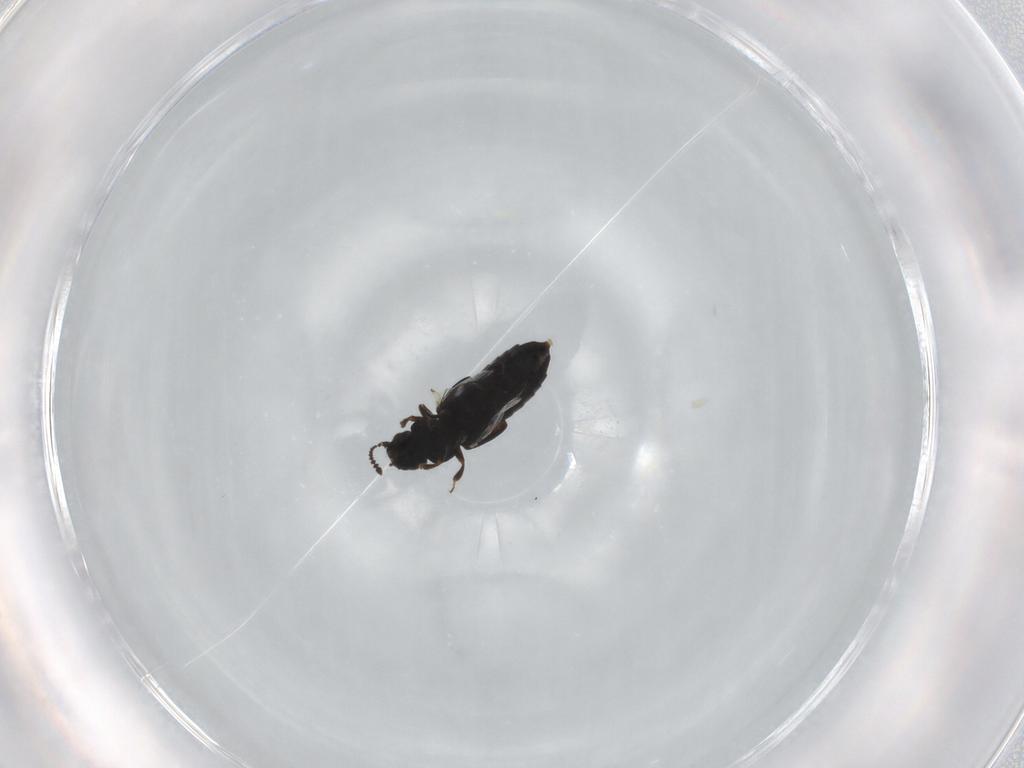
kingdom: Animalia
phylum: Arthropoda
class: Insecta
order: Coleoptera
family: Staphylinidae
